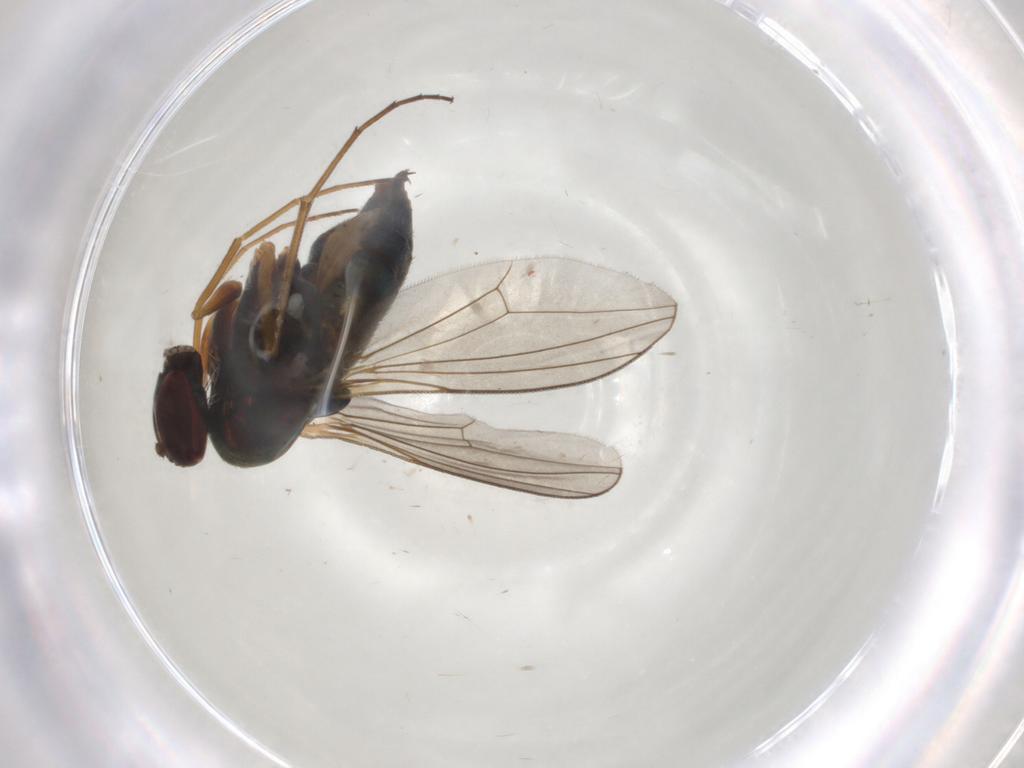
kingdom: Animalia
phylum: Arthropoda
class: Insecta
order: Diptera
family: Dolichopodidae
